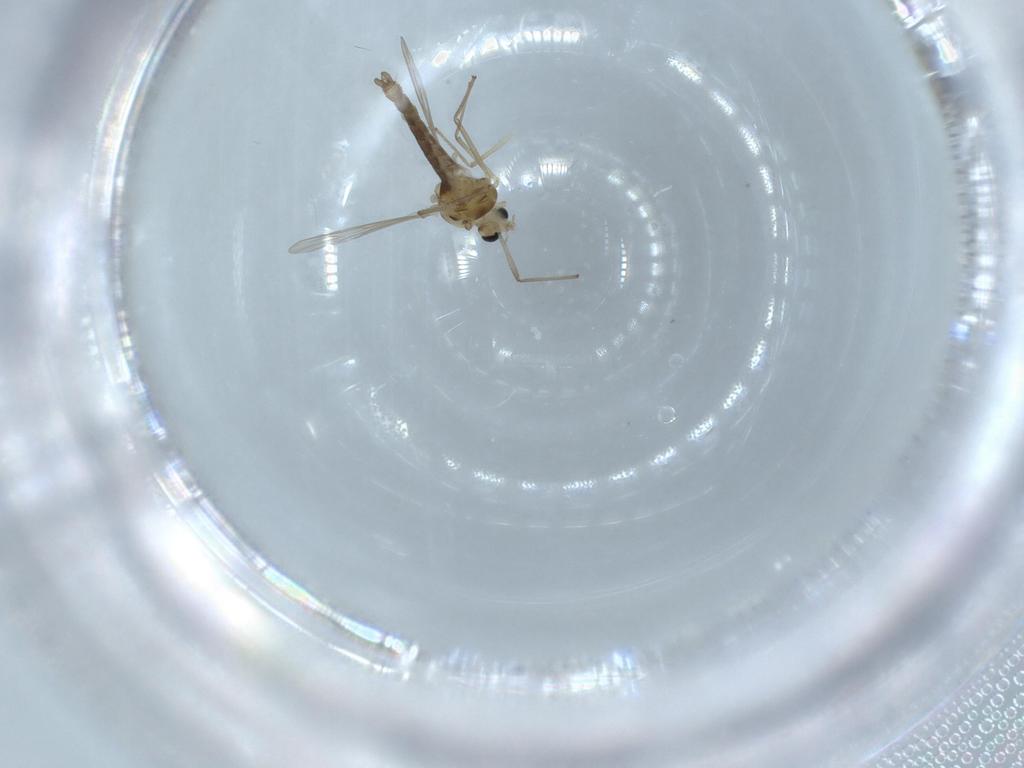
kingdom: Animalia
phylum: Arthropoda
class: Insecta
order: Diptera
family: Chironomidae
